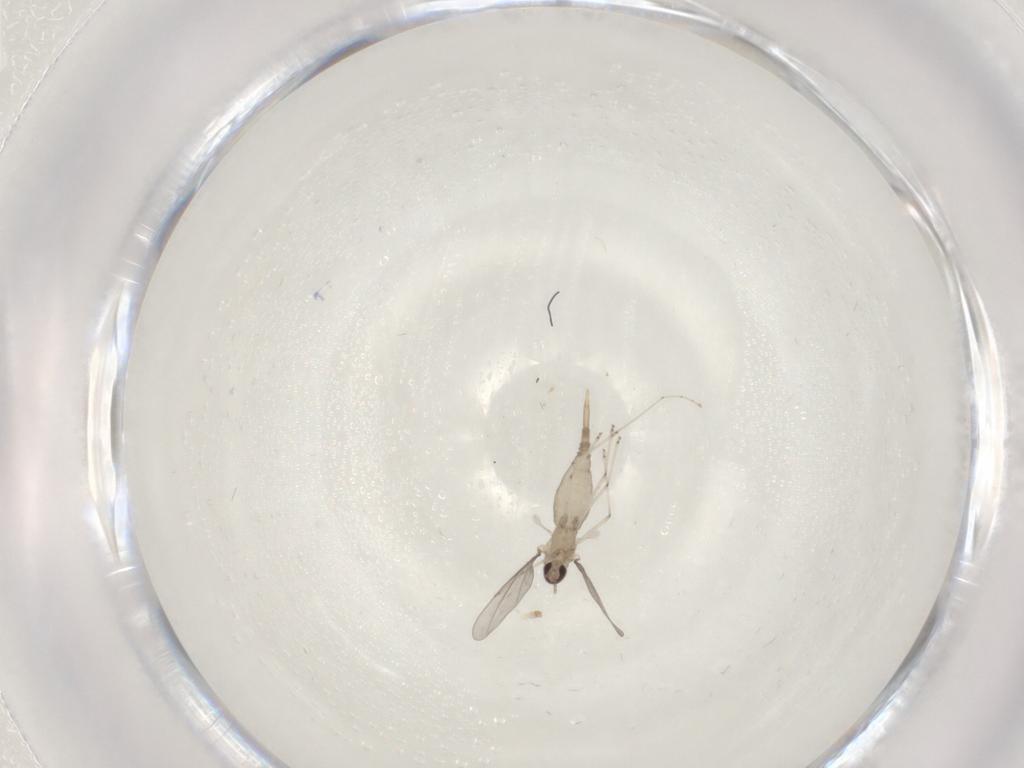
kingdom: Animalia
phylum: Arthropoda
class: Insecta
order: Diptera
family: Cecidomyiidae
